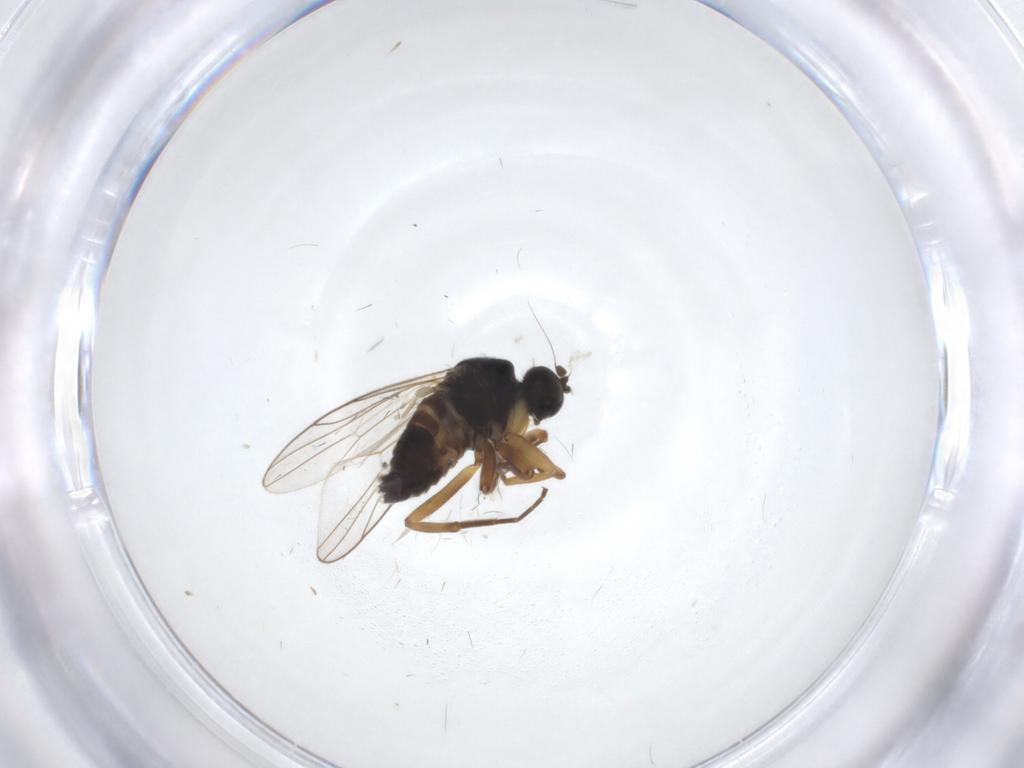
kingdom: Animalia
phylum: Arthropoda
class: Insecta
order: Diptera
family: Hybotidae
